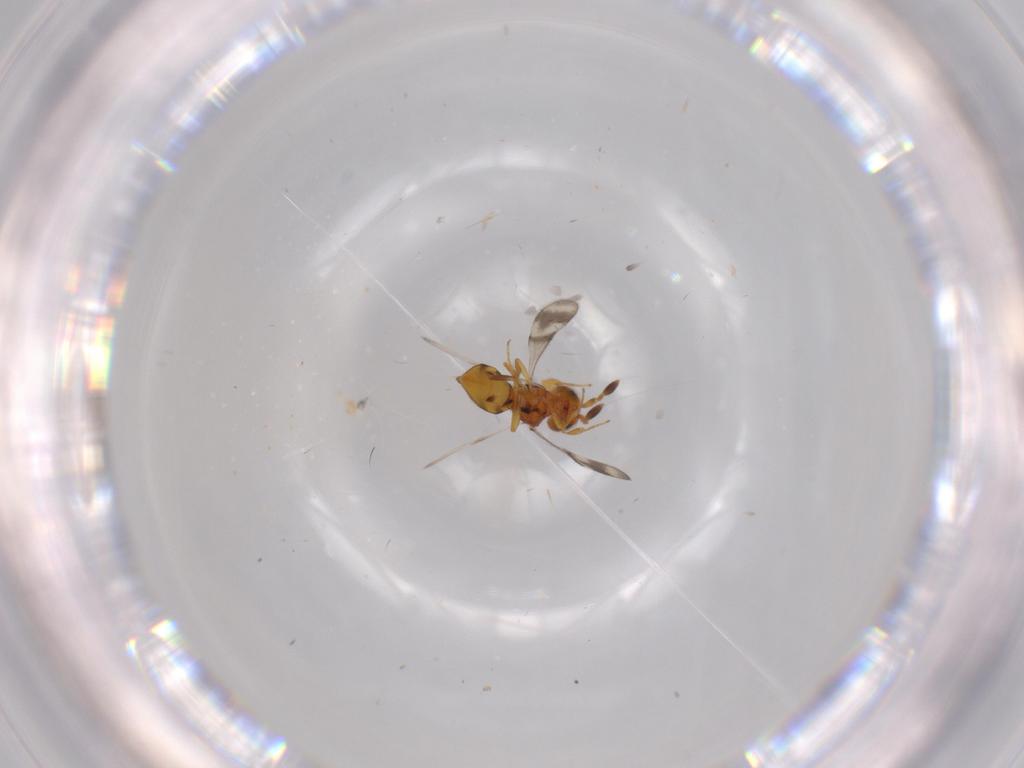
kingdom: Animalia
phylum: Arthropoda
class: Insecta
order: Hymenoptera
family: Scelionidae
